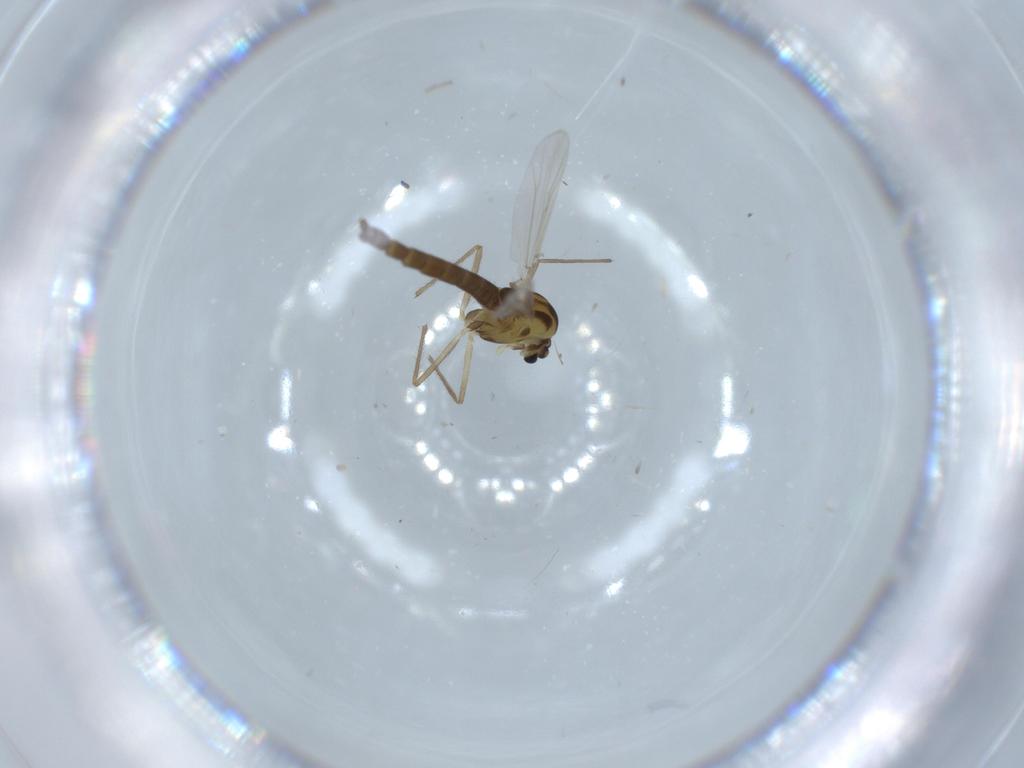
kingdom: Animalia
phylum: Arthropoda
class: Insecta
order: Diptera
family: Chironomidae
